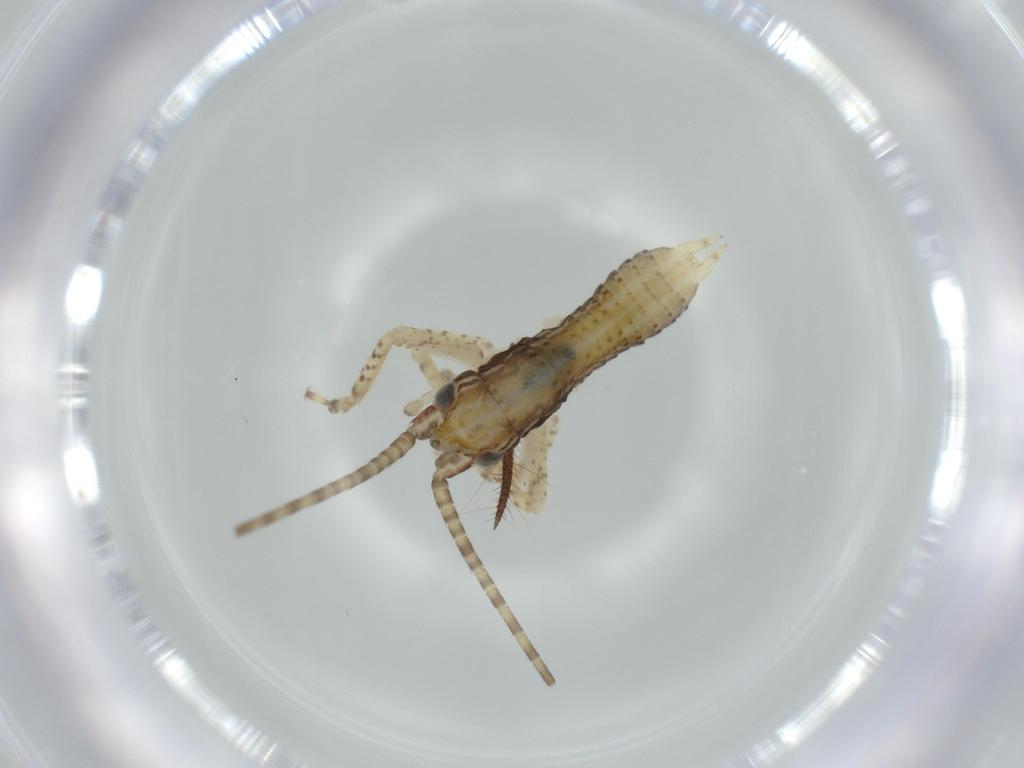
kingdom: Animalia
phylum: Arthropoda
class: Insecta
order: Orthoptera
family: Gryllidae
